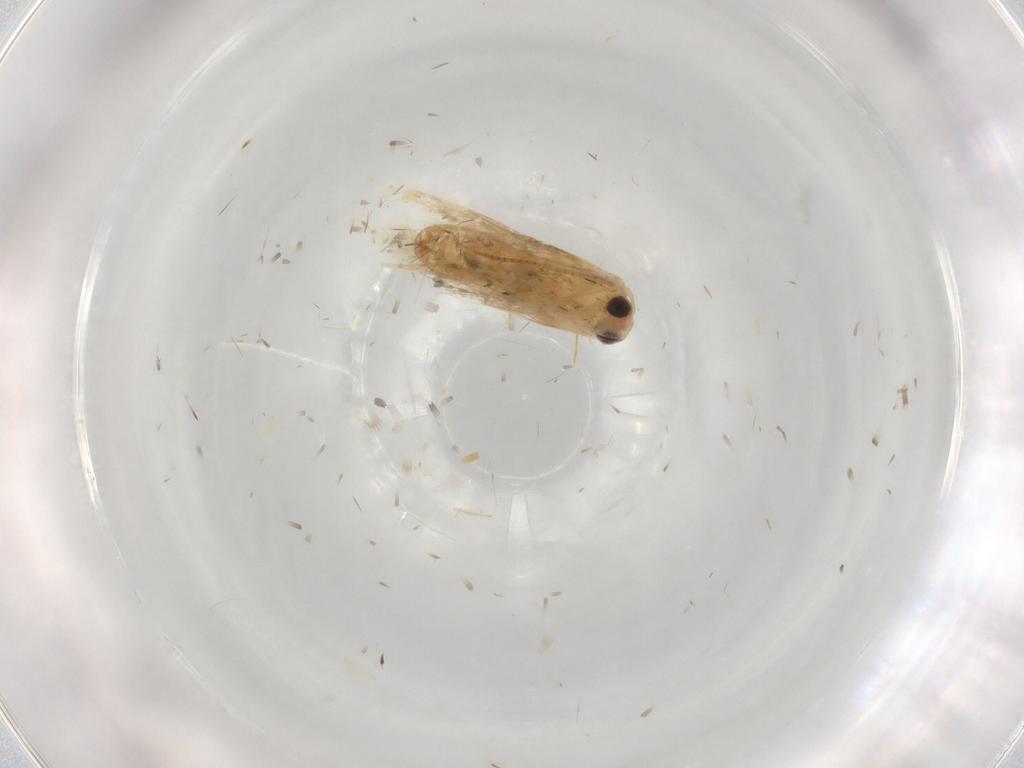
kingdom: Animalia
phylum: Arthropoda
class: Insecta
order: Lepidoptera
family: Noctuidae
